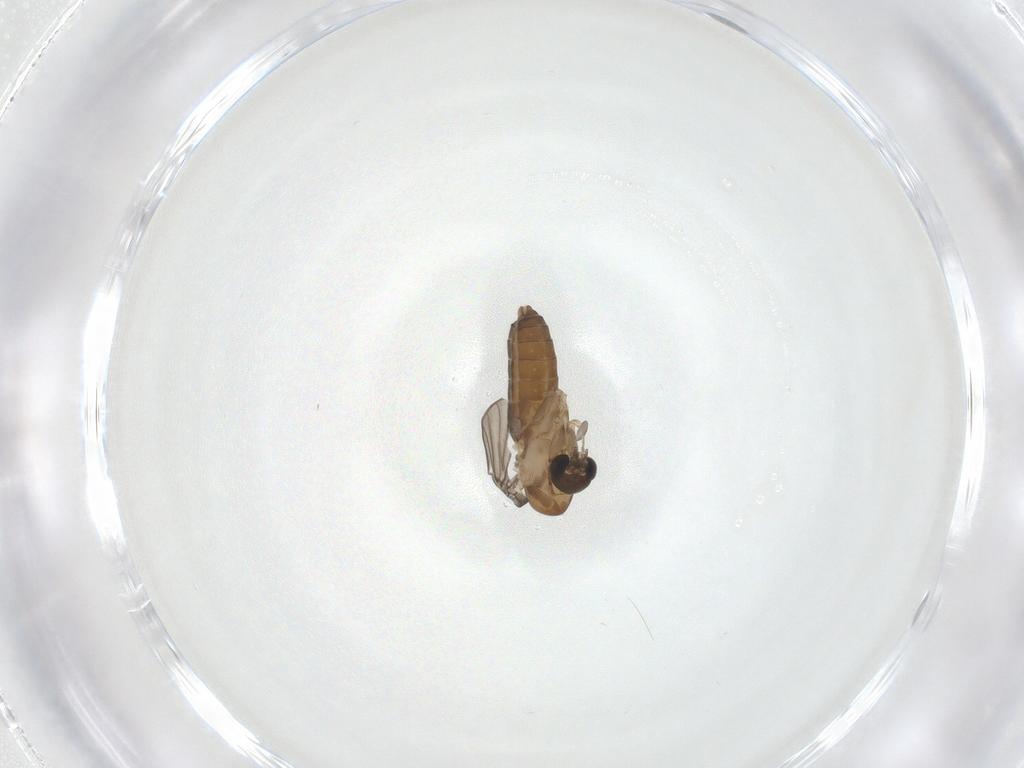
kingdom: Animalia
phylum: Arthropoda
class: Insecta
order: Diptera
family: Psychodidae
